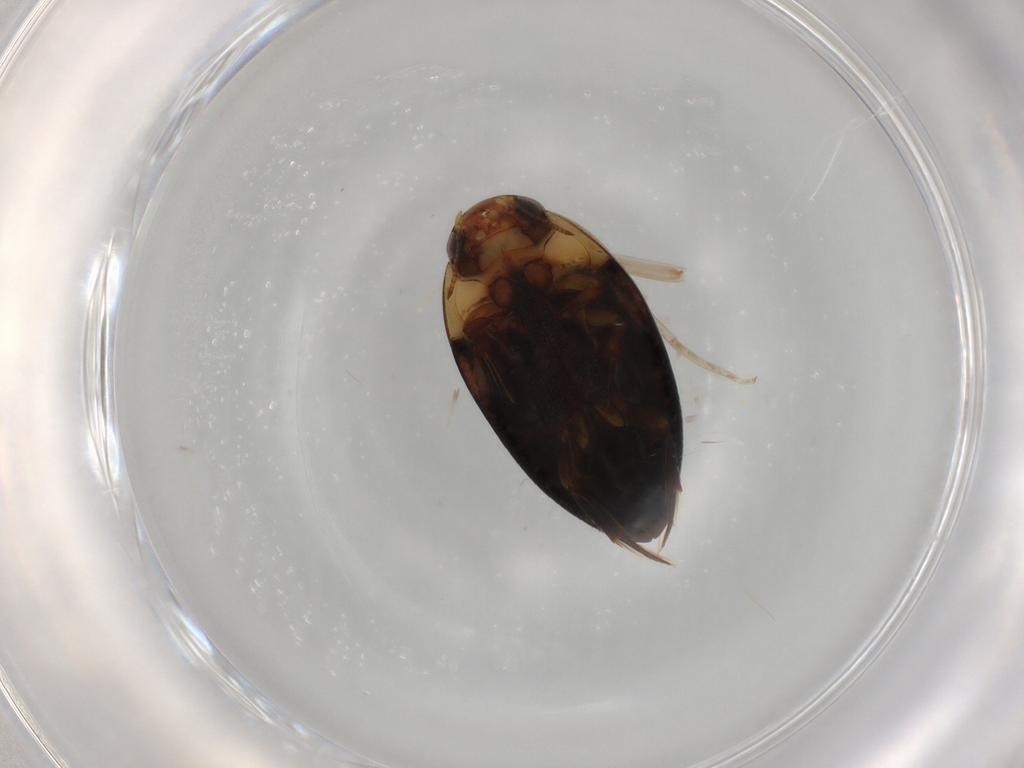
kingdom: Animalia
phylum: Arthropoda
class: Insecta
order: Coleoptera
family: Noteridae
